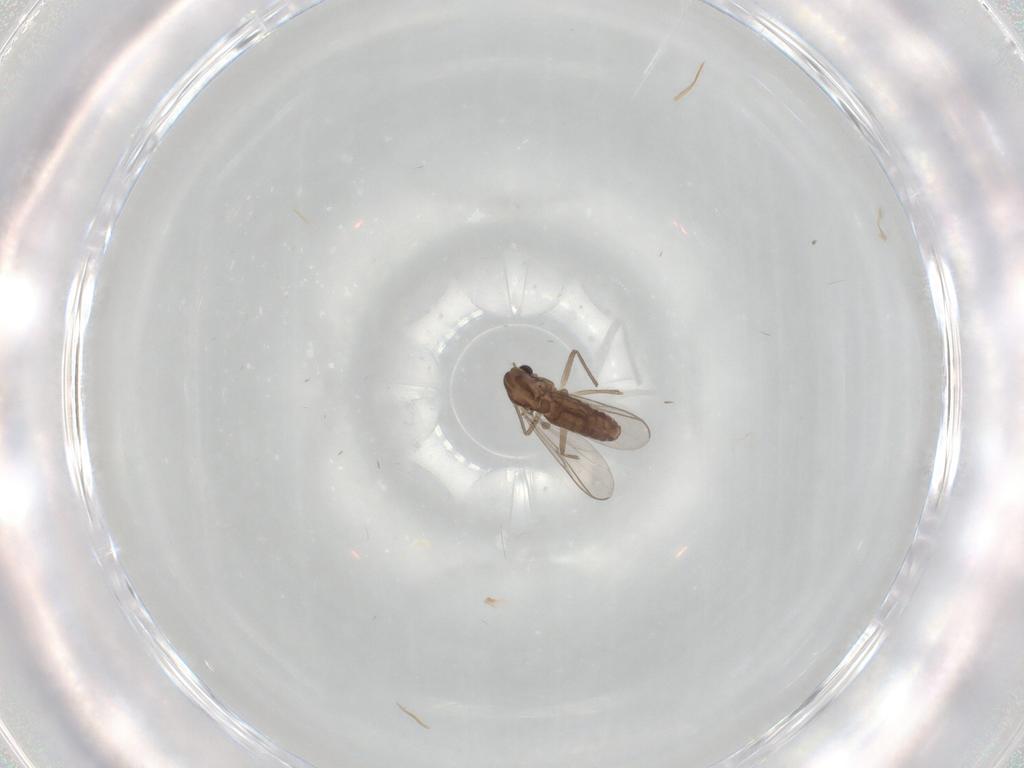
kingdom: Animalia
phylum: Arthropoda
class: Insecta
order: Diptera
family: Chironomidae
